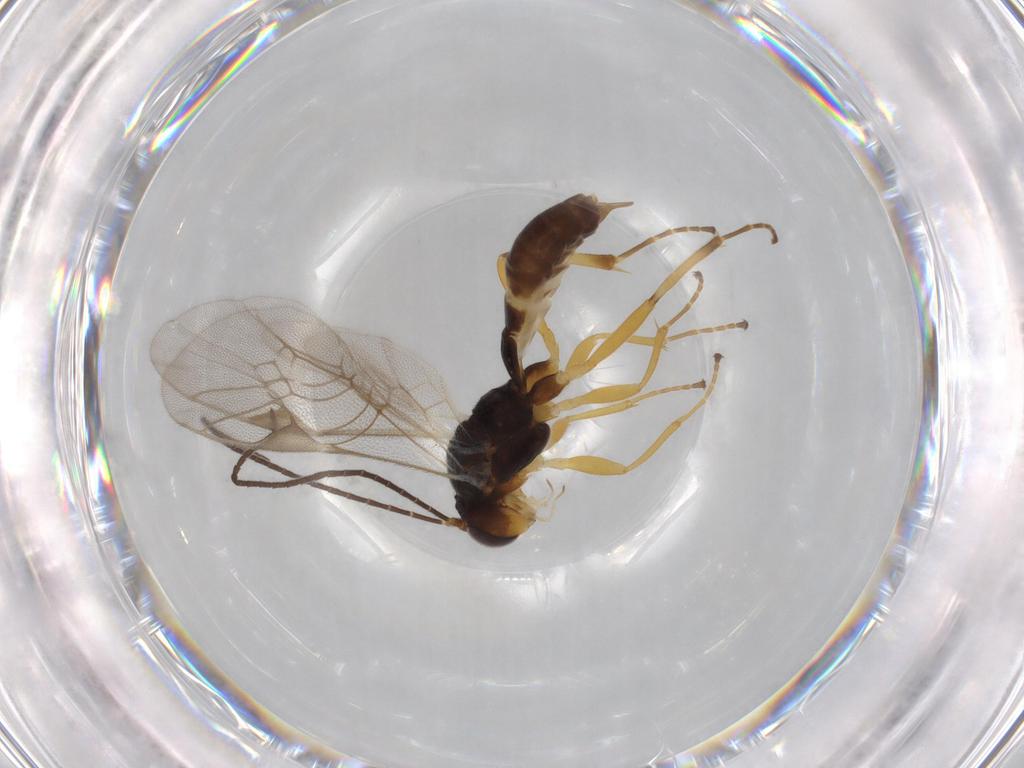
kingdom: Animalia
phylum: Arthropoda
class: Insecta
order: Hymenoptera
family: Ichneumonidae
